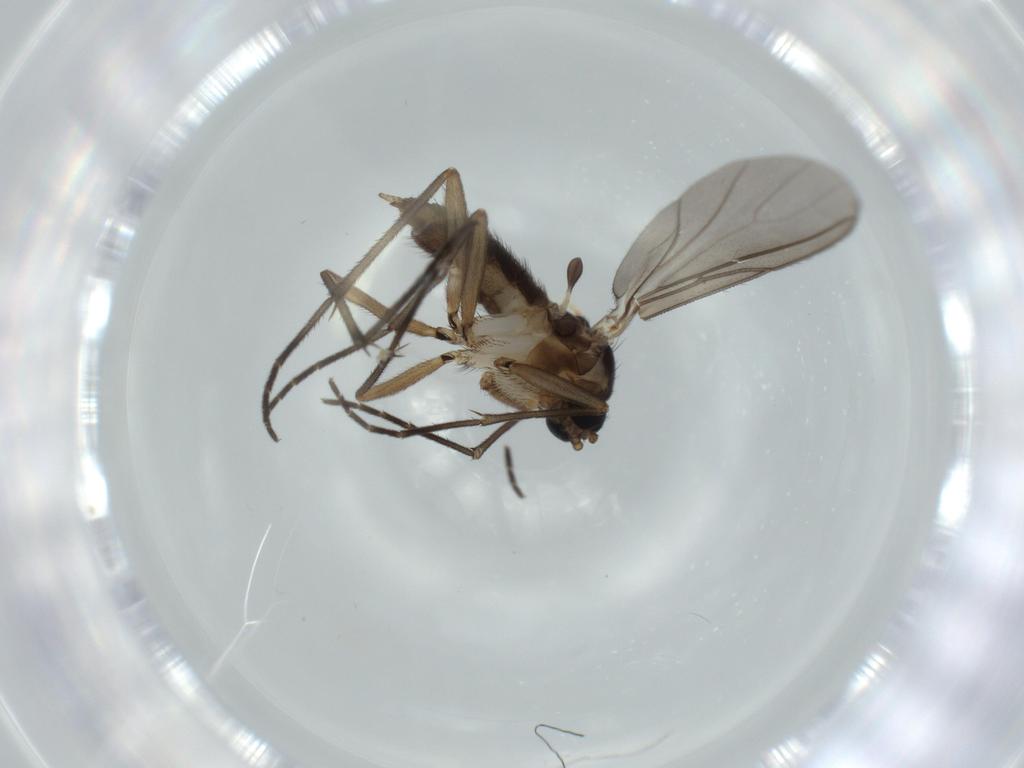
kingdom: Animalia
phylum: Arthropoda
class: Insecta
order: Diptera
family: Sciaridae
